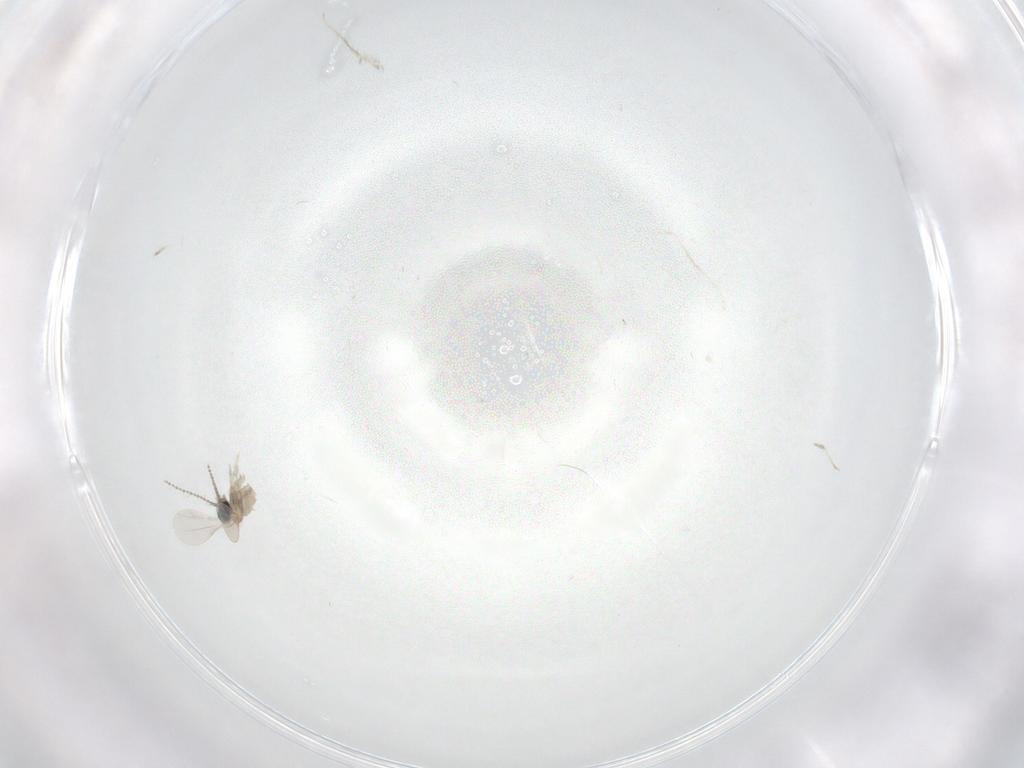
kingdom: Animalia
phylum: Arthropoda
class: Insecta
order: Diptera
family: Cecidomyiidae
